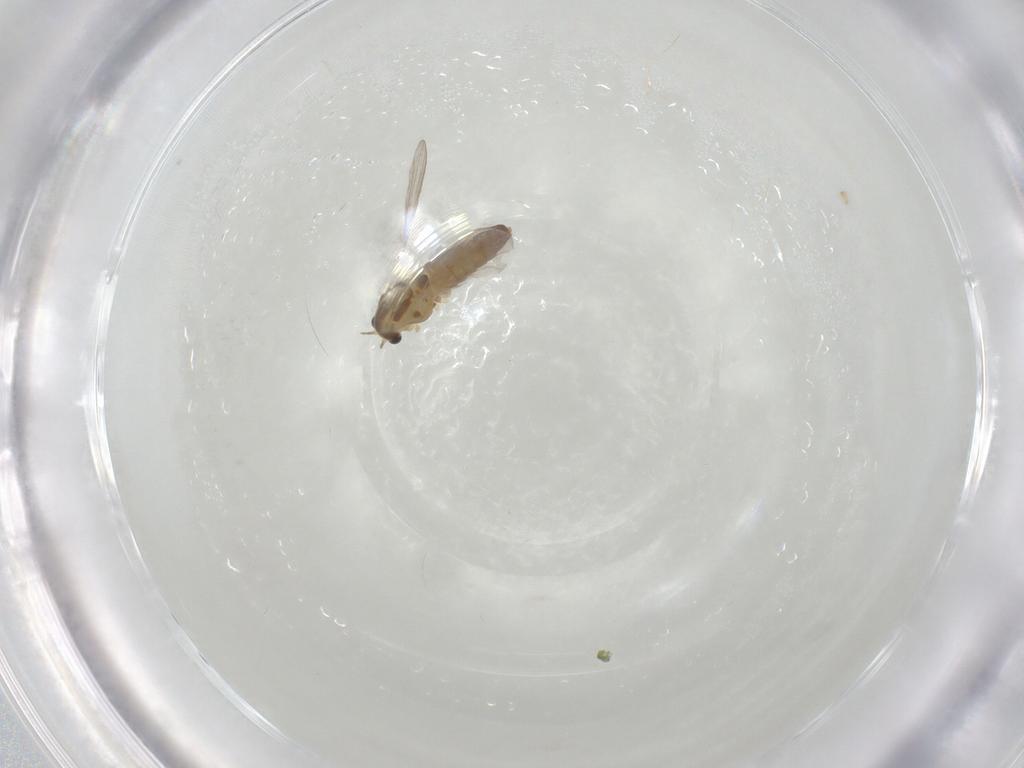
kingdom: Animalia
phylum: Arthropoda
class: Insecta
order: Diptera
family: Chironomidae
